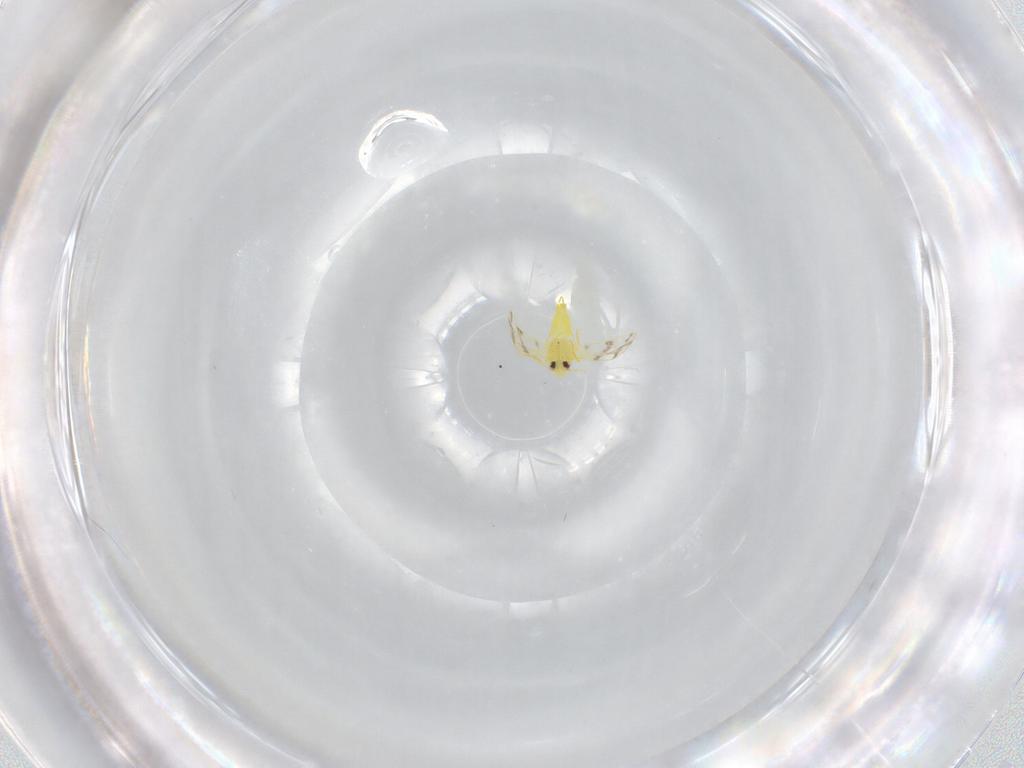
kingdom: Animalia
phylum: Arthropoda
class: Insecta
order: Hemiptera
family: Aleyrodidae
